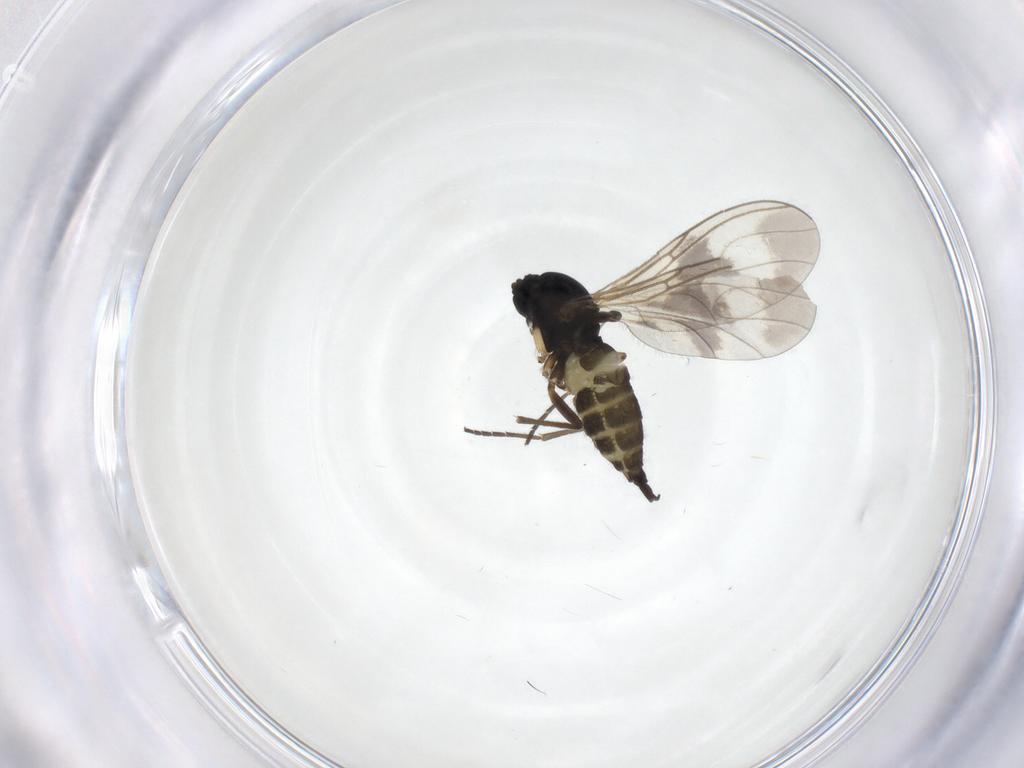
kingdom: Animalia
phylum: Arthropoda
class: Insecta
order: Diptera
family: Sciaridae
